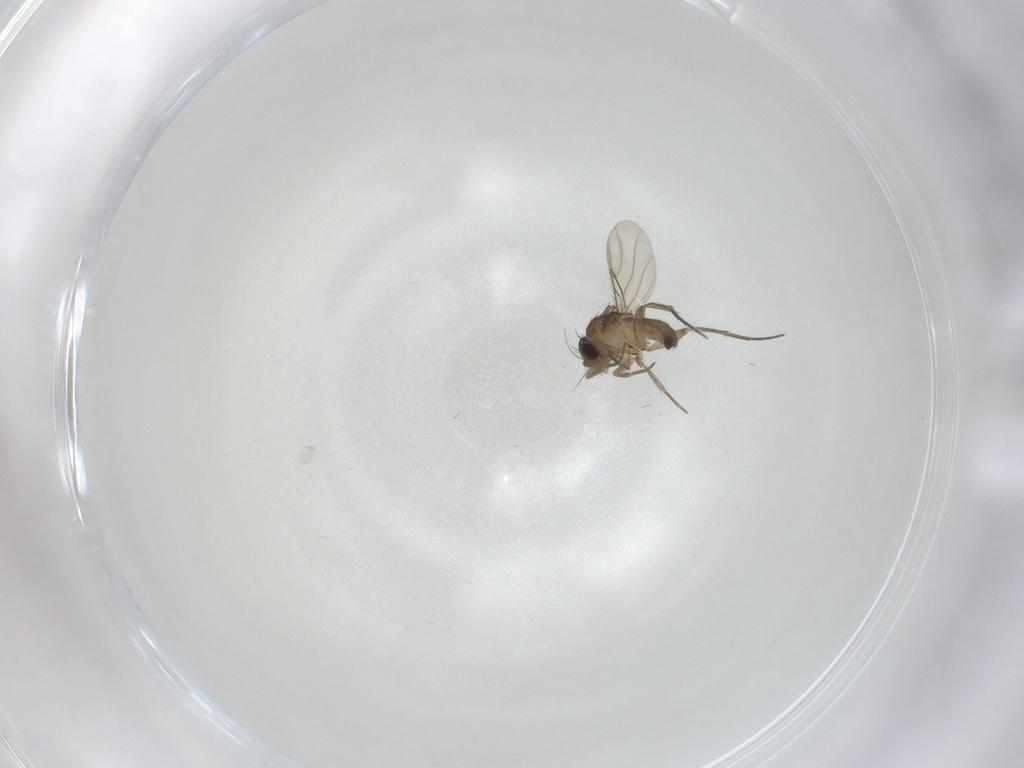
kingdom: Animalia
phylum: Arthropoda
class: Insecta
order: Diptera
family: Phoridae
